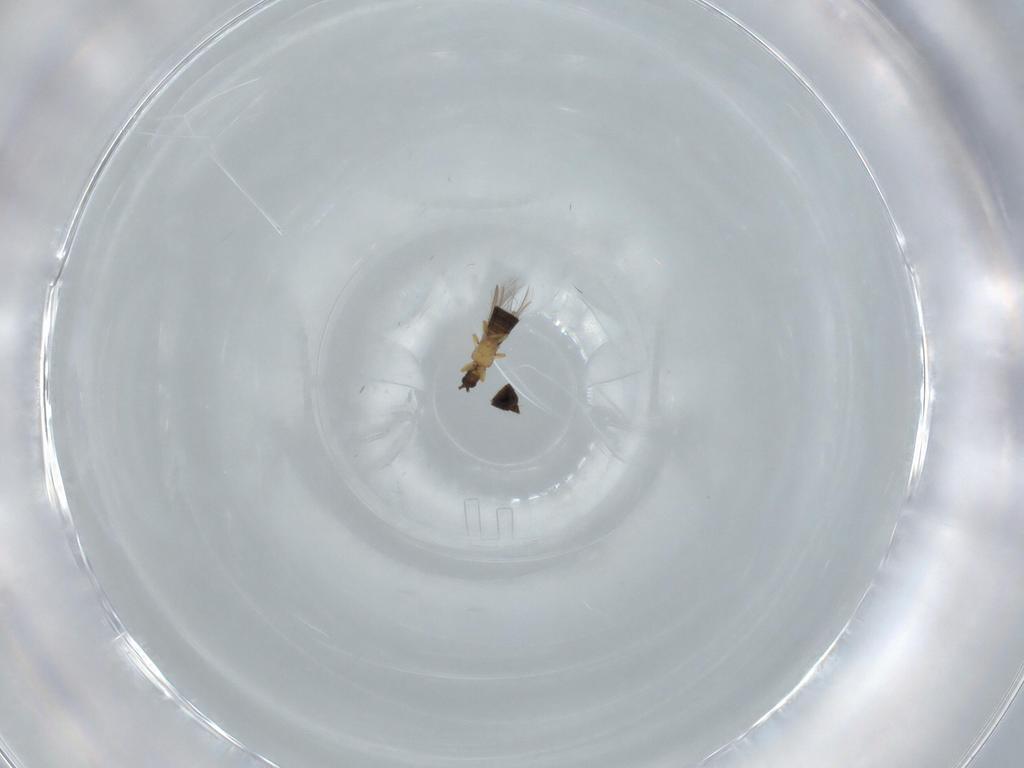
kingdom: Animalia
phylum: Arthropoda
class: Insecta
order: Thysanoptera
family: Thripidae
